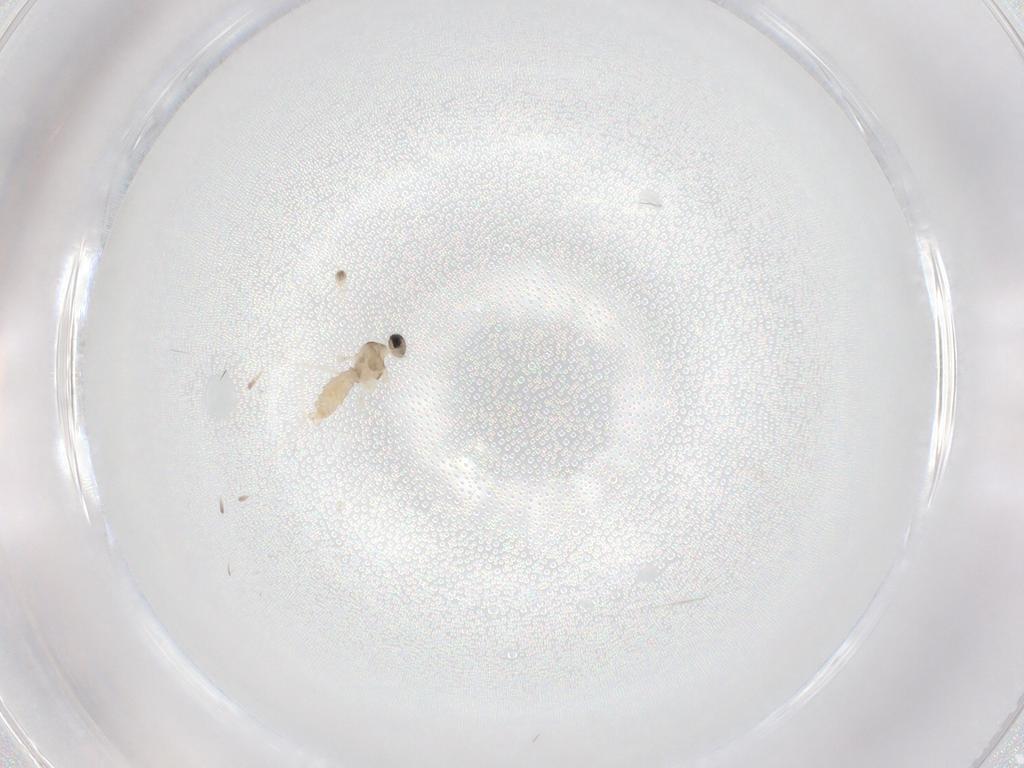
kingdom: Animalia
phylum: Arthropoda
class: Insecta
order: Diptera
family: Cecidomyiidae
